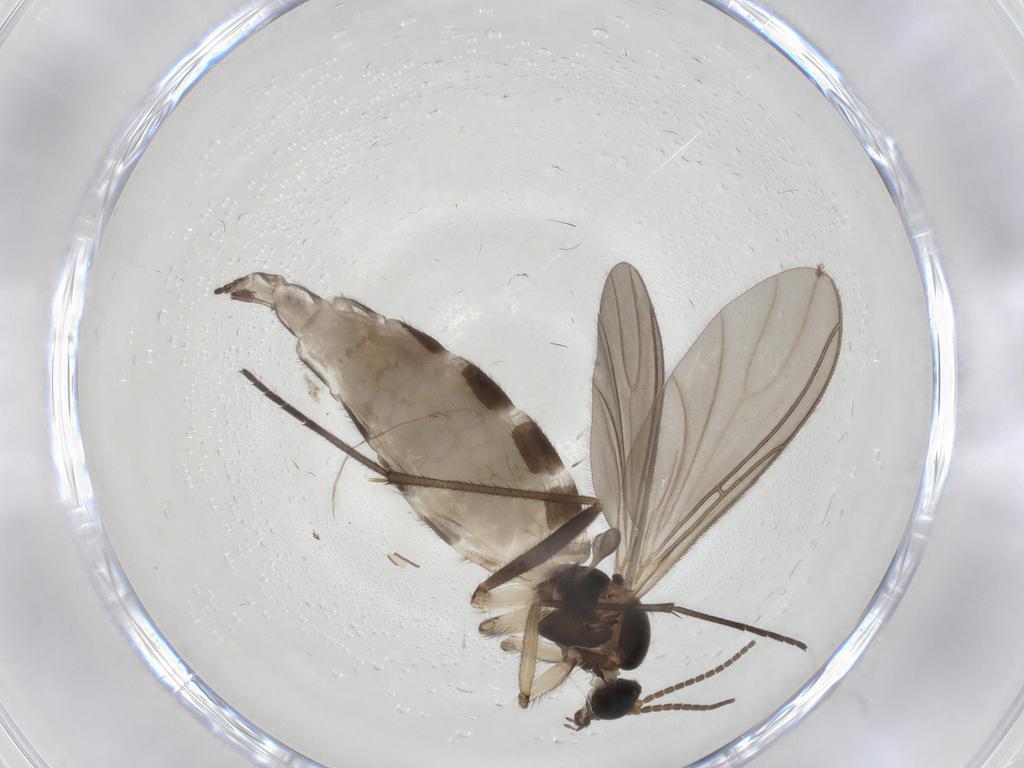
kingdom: Animalia
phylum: Arthropoda
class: Insecta
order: Diptera
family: Sciaridae
